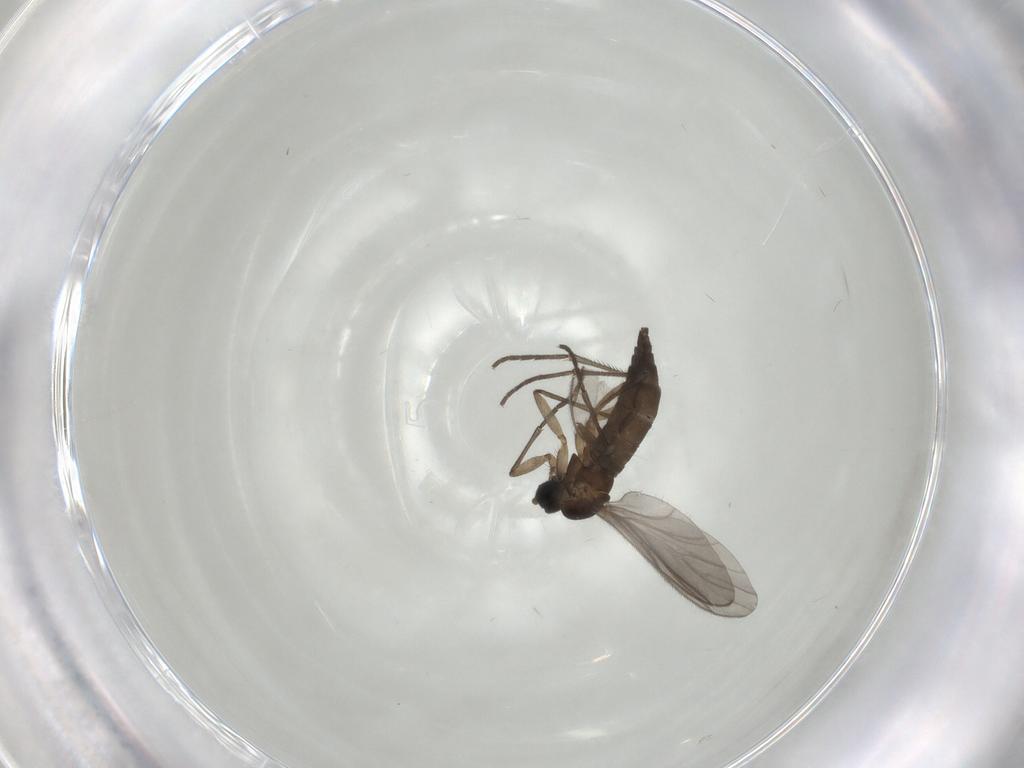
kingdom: Animalia
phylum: Arthropoda
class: Insecta
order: Diptera
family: Sciaridae
